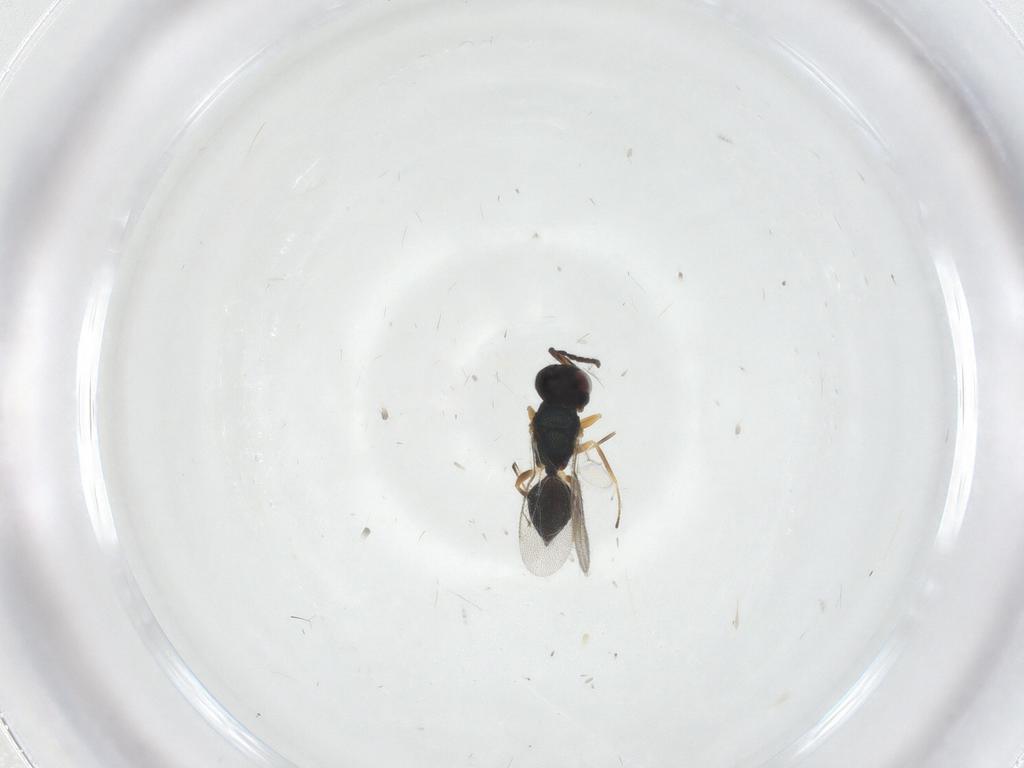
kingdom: Animalia
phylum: Arthropoda
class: Insecta
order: Hymenoptera
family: Pteromalidae
